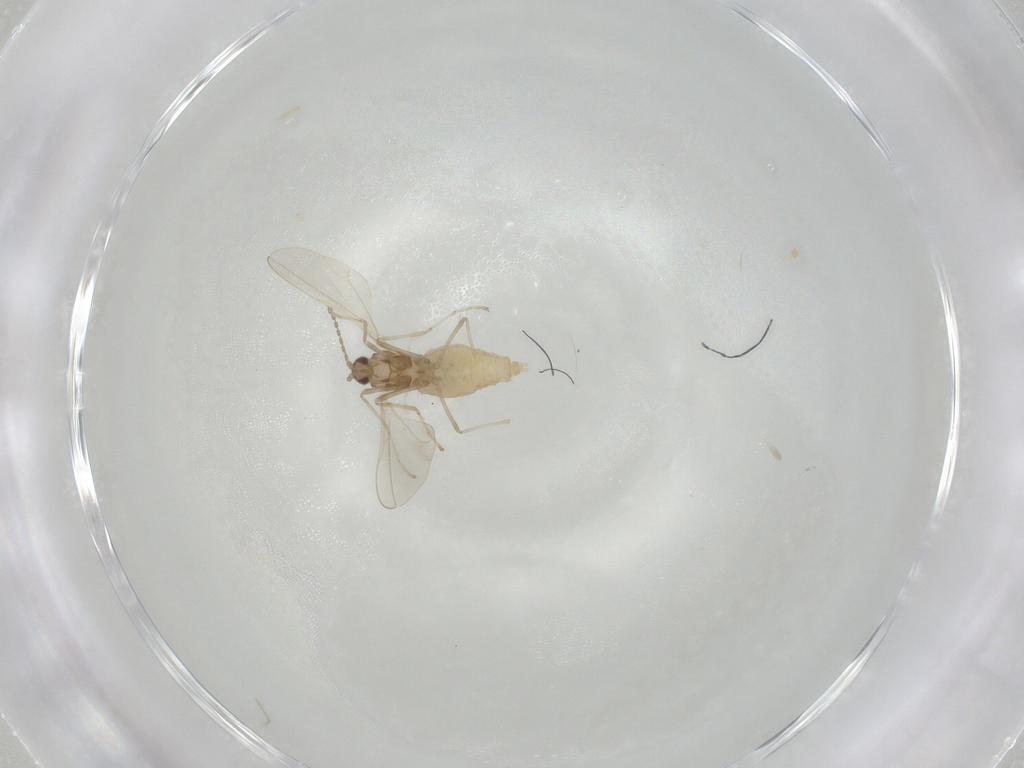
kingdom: Animalia
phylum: Arthropoda
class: Insecta
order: Diptera
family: Cecidomyiidae
